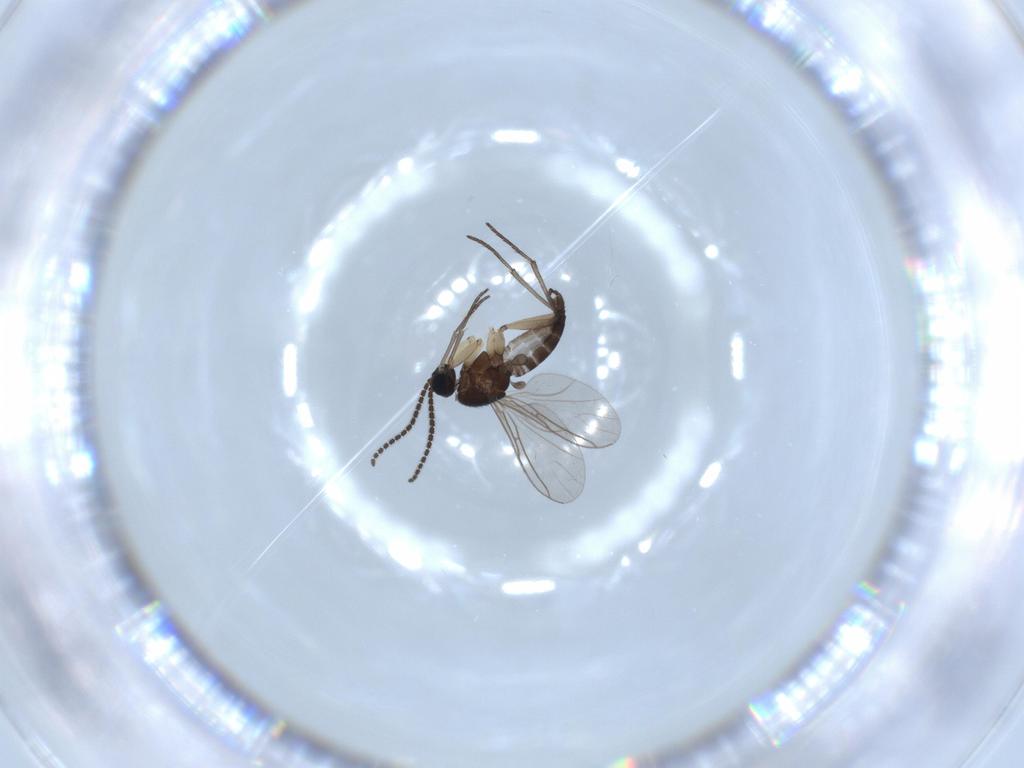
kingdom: Animalia
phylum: Arthropoda
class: Insecta
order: Diptera
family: Sciaridae
